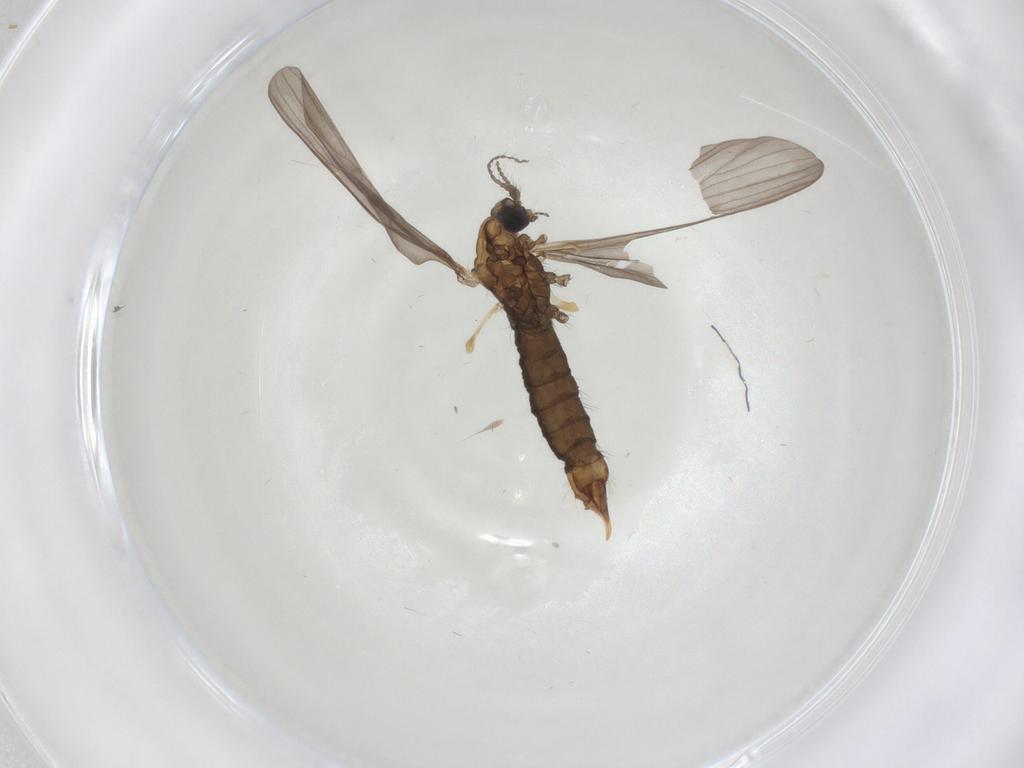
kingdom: Animalia
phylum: Arthropoda
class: Insecta
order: Diptera
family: Limoniidae
